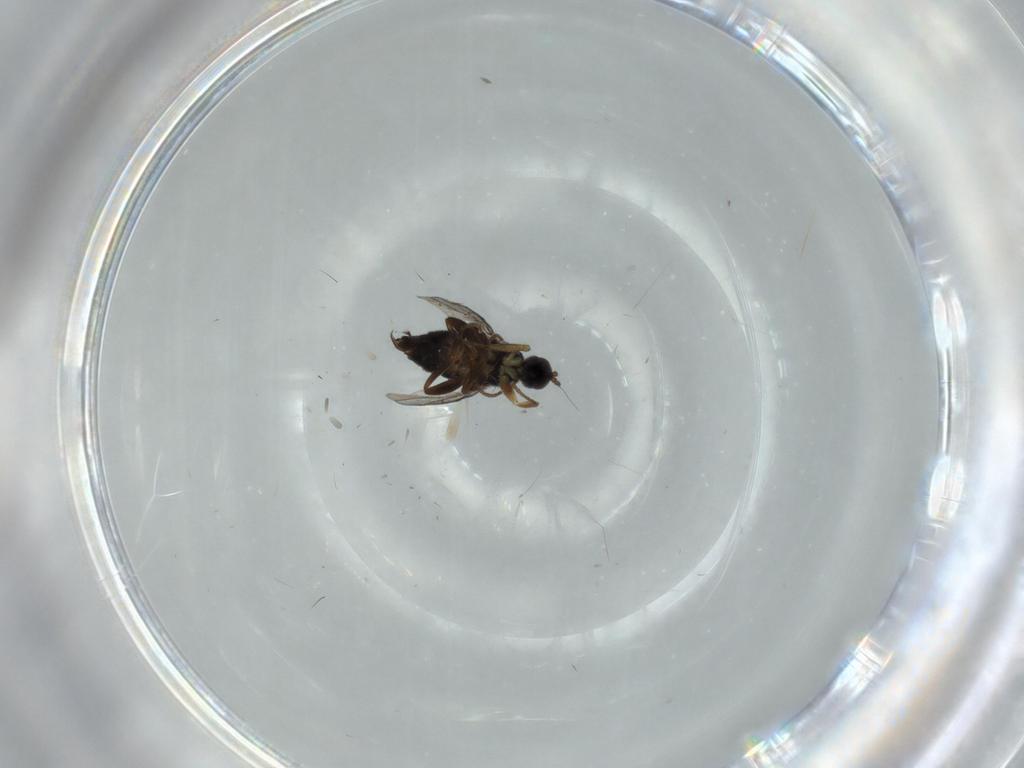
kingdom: Animalia
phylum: Arthropoda
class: Insecta
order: Diptera
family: Hybotidae
